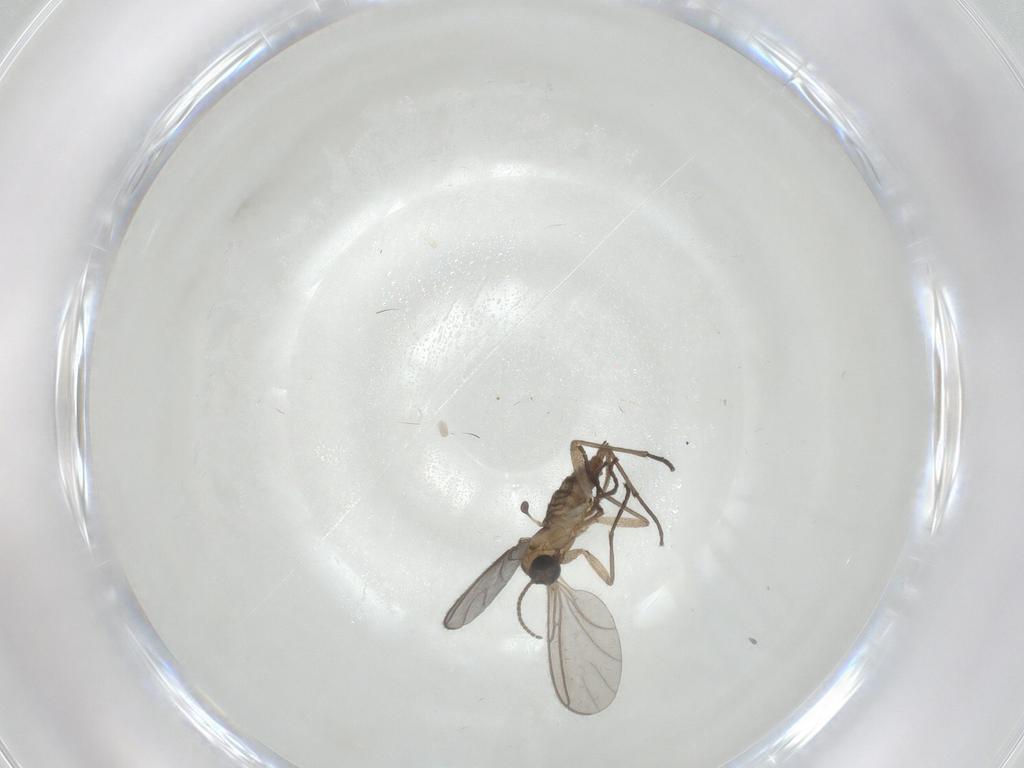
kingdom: Animalia
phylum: Arthropoda
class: Insecta
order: Diptera
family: Sciaridae
